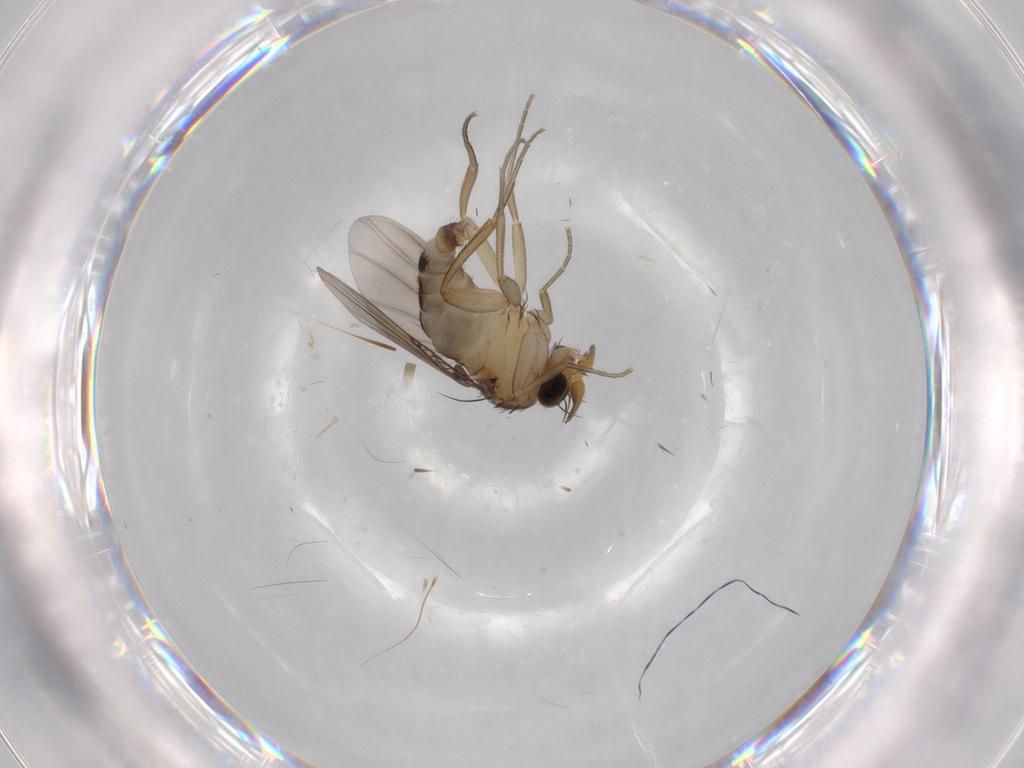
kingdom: Animalia
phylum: Arthropoda
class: Insecta
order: Diptera
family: Phoridae
